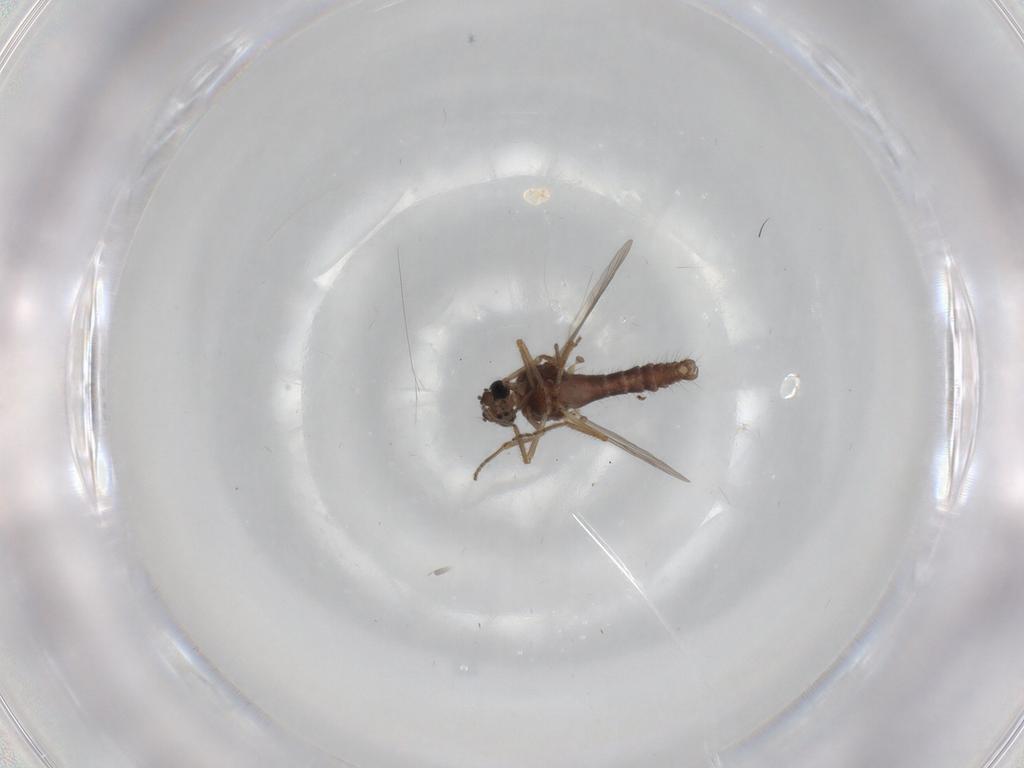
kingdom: Animalia
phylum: Arthropoda
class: Insecta
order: Diptera
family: Ceratopogonidae
